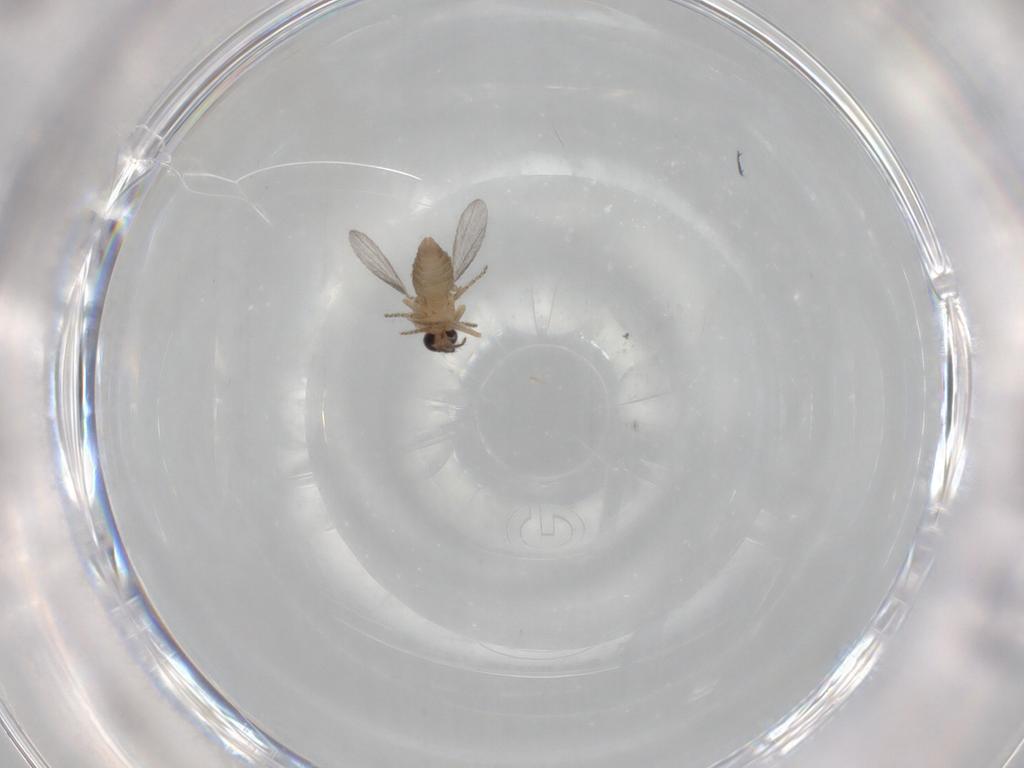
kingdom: Animalia
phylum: Arthropoda
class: Insecta
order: Diptera
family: Ceratopogonidae
